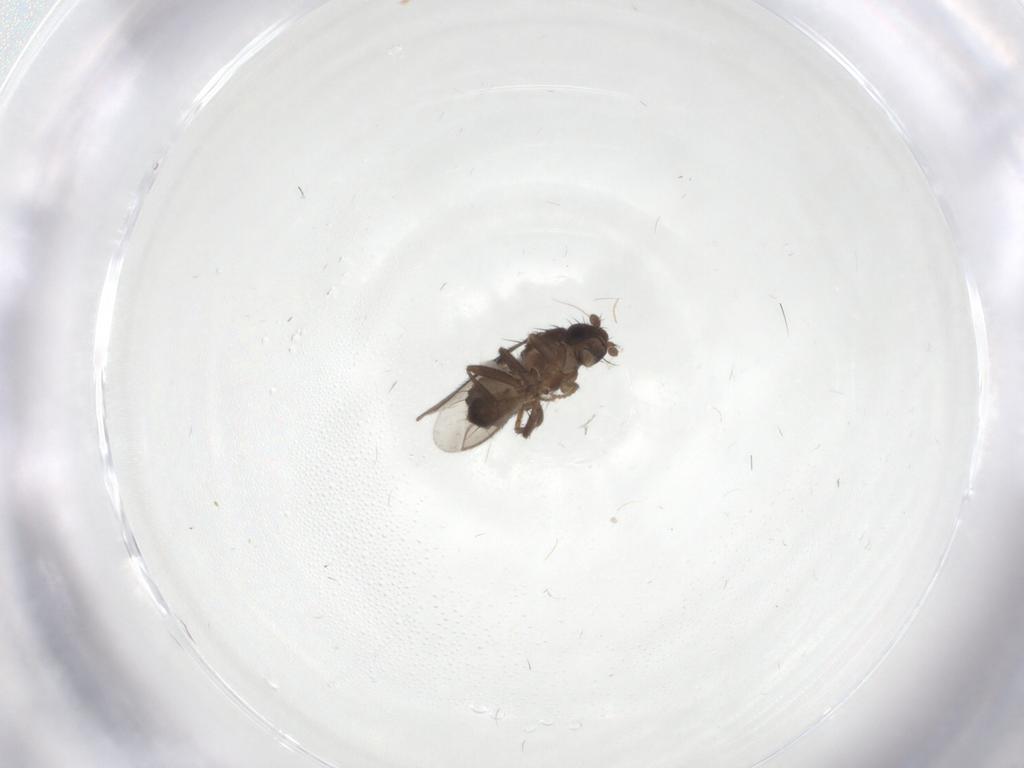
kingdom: Animalia
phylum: Arthropoda
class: Insecta
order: Diptera
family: Sphaeroceridae
